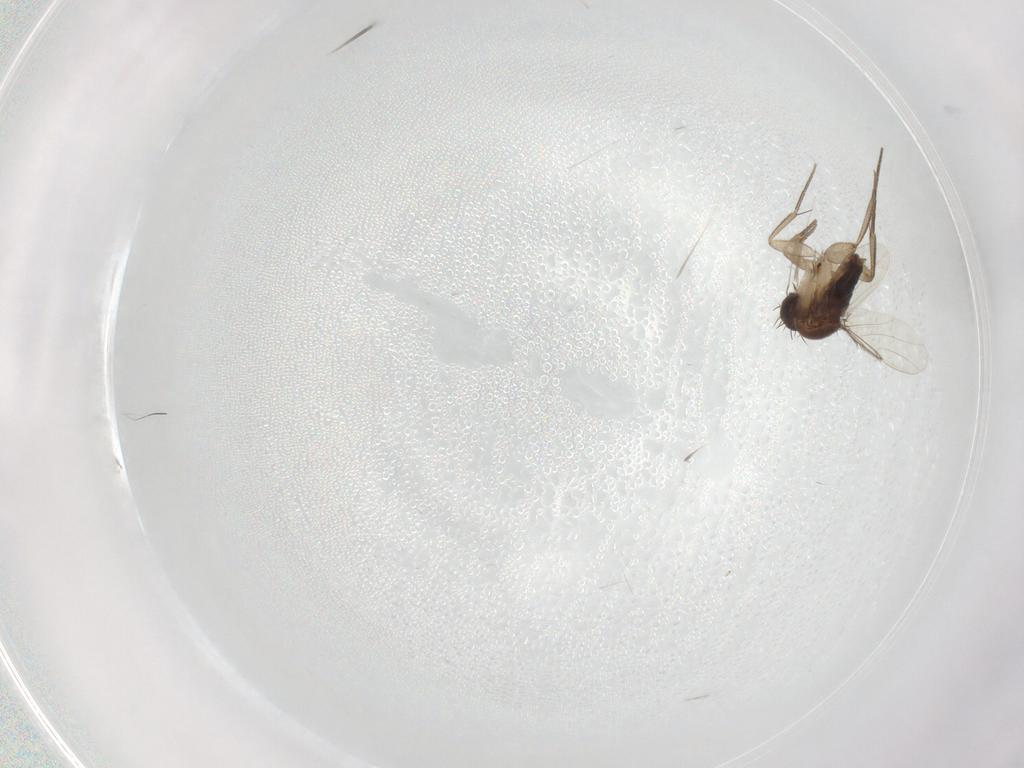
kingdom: Animalia
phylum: Arthropoda
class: Insecta
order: Diptera
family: Phoridae
